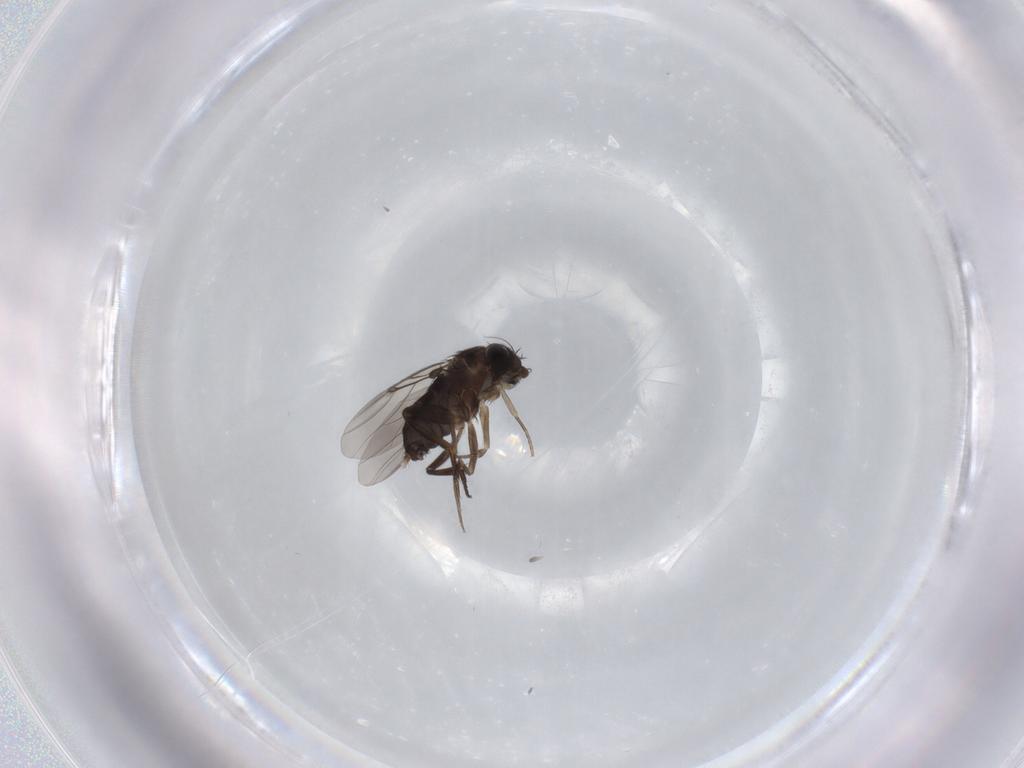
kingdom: Animalia
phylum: Arthropoda
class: Insecta
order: Diptera
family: Phoridae
